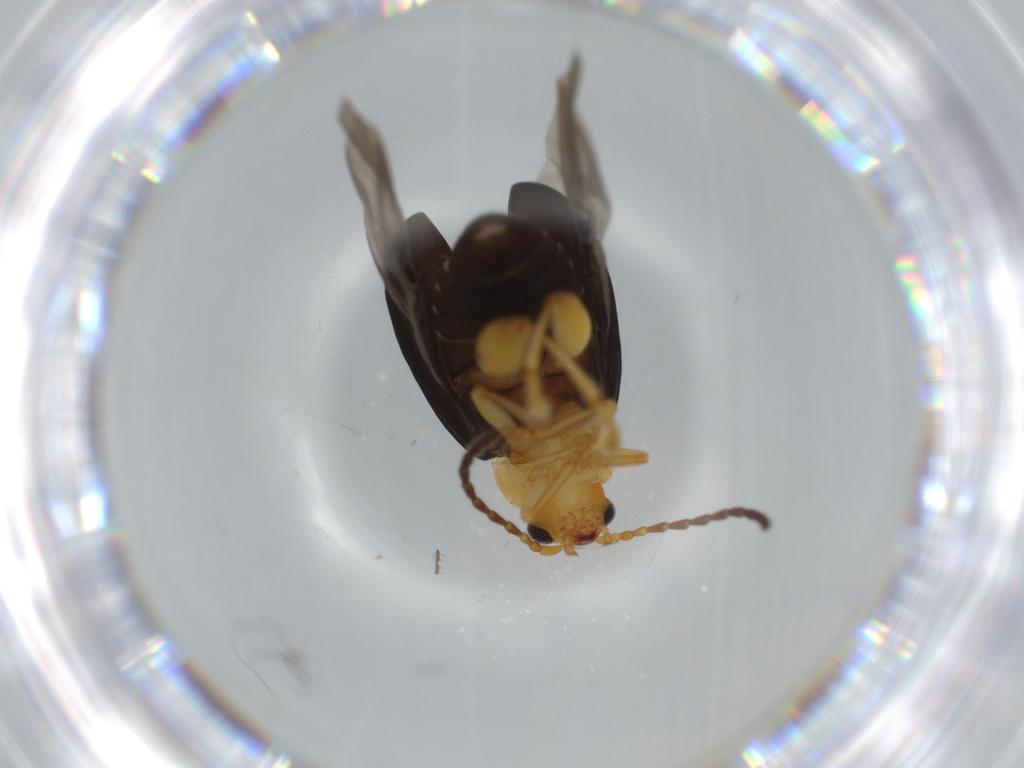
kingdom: Animalia
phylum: Arthropoda
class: Insecta
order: Coleoptera
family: Chrysomelidae
